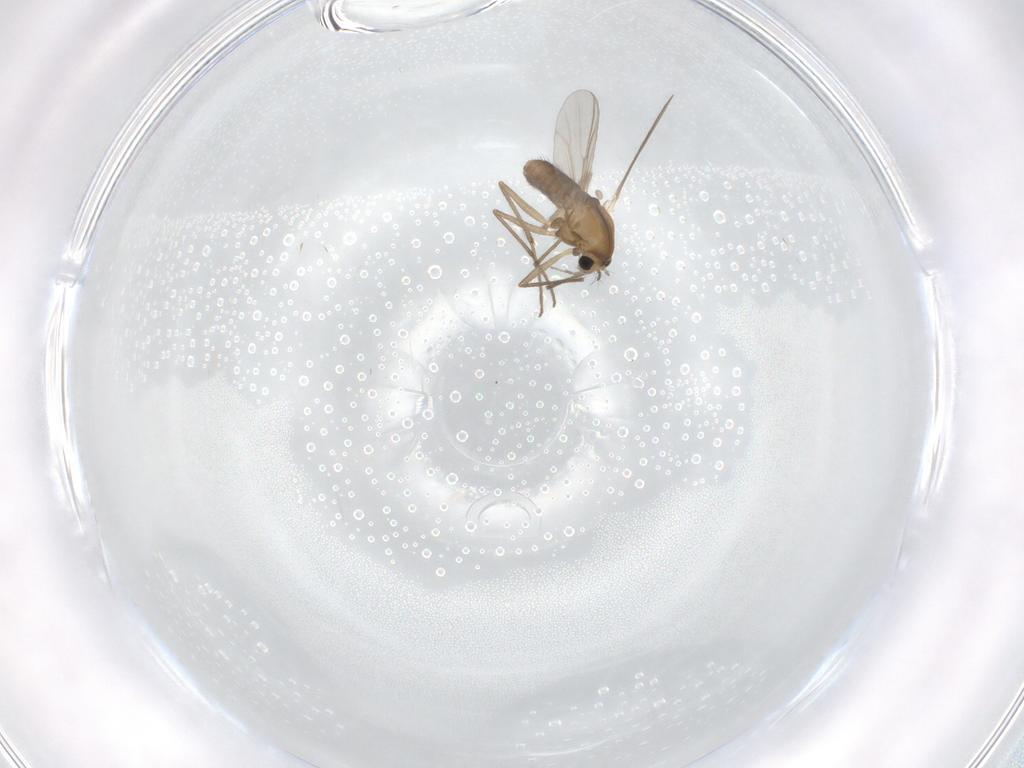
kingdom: Animalia
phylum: Arthropoda
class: Insecta
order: Diptera
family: Chironomidae
